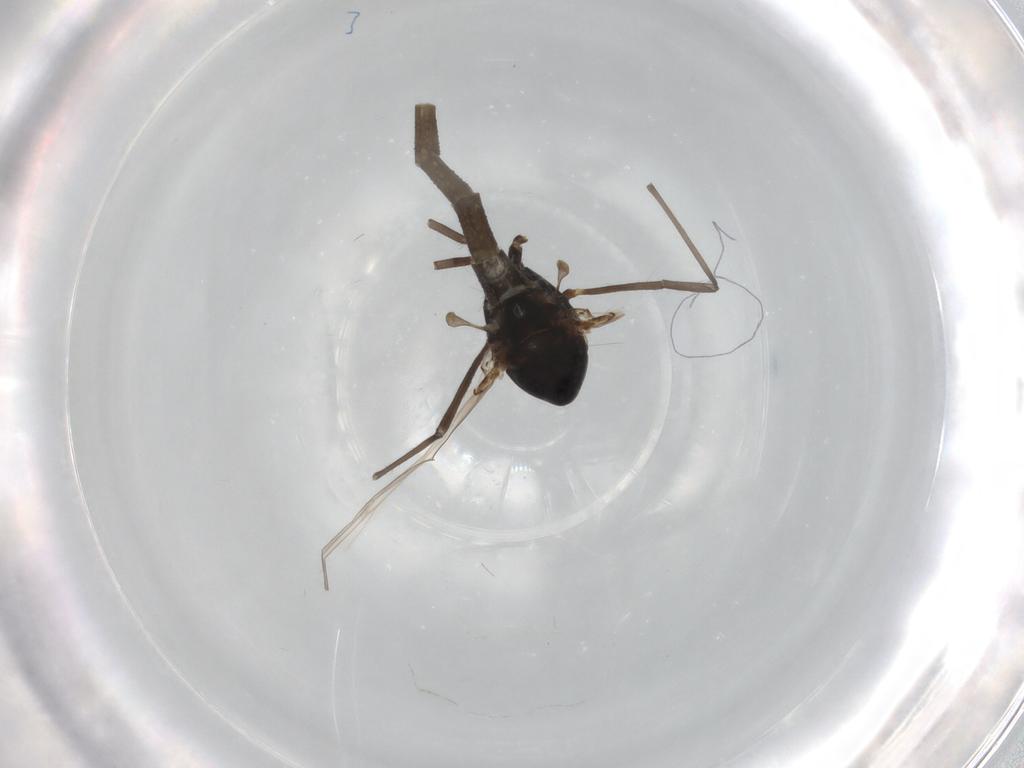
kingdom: Animalia
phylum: Arthropoda
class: Insecta
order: Diptera
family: Chironomidae
